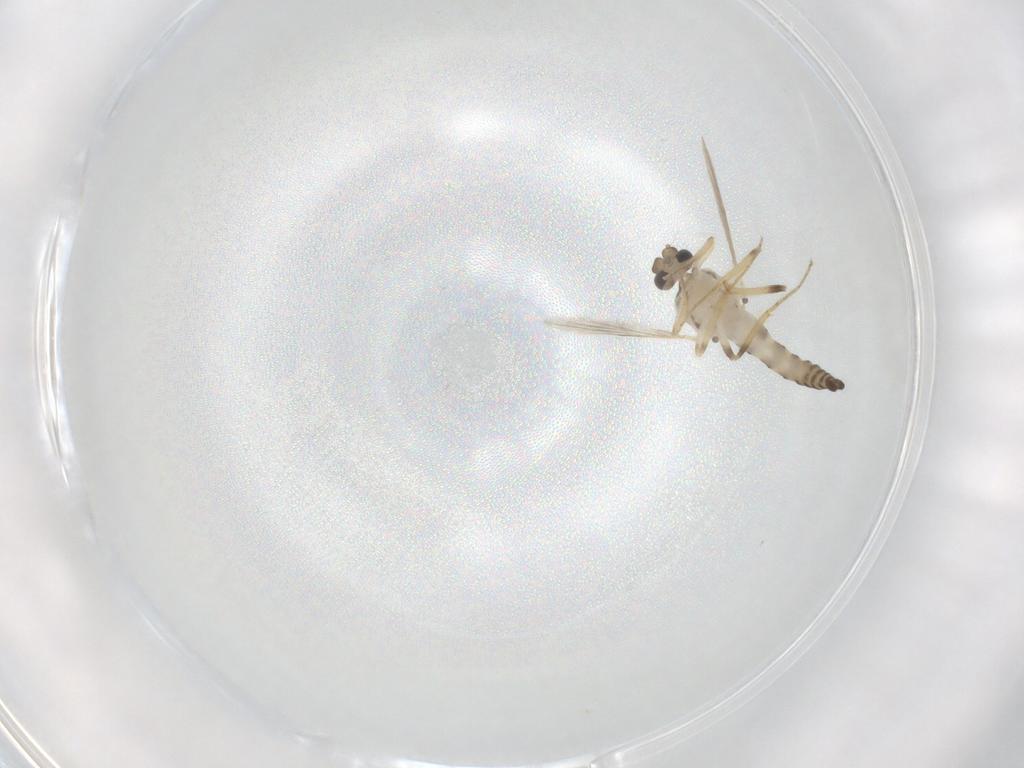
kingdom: Animalia
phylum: Arthropoda
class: Insecta
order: Diptera
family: Ceratopogonidae
